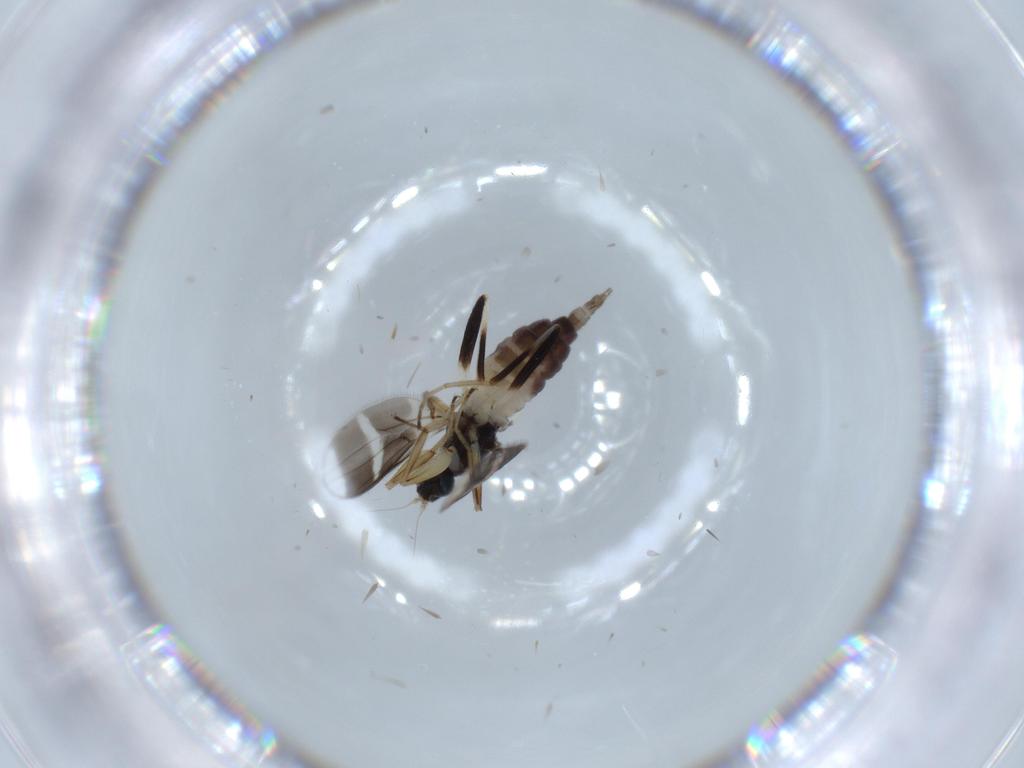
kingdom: Animalia
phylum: Arthropoda
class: Insecta
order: Diptera
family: Hybotidae
